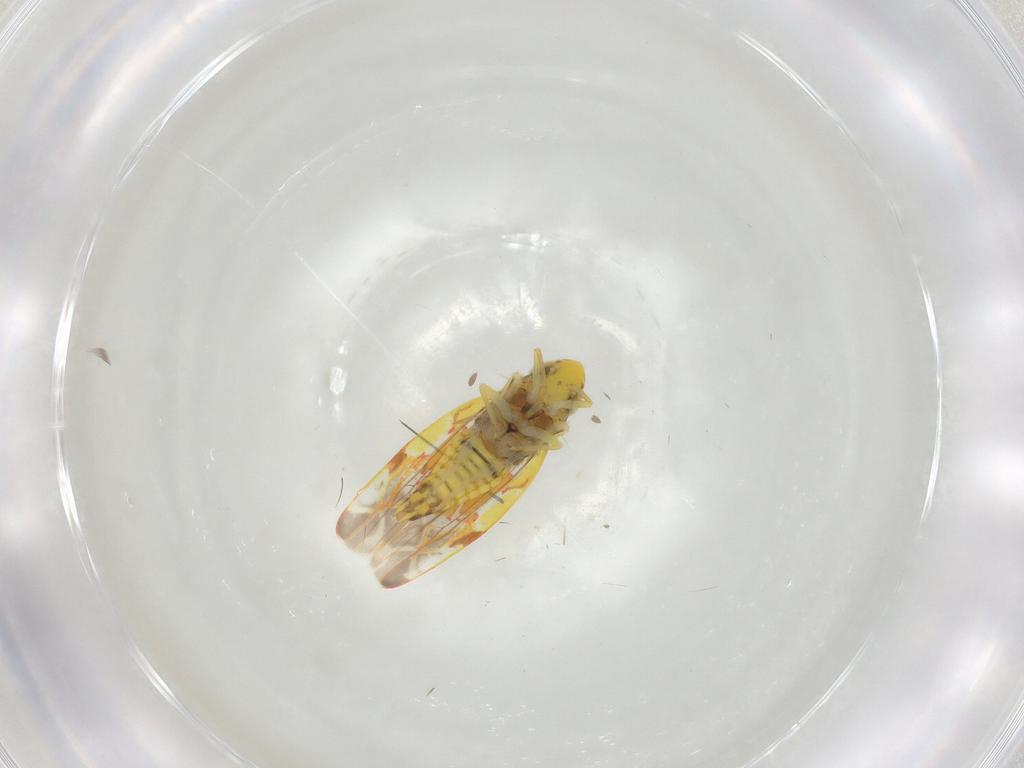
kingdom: Animalia
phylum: Arthropoda
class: Insecta
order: Hemiptera
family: Cicadellidae
